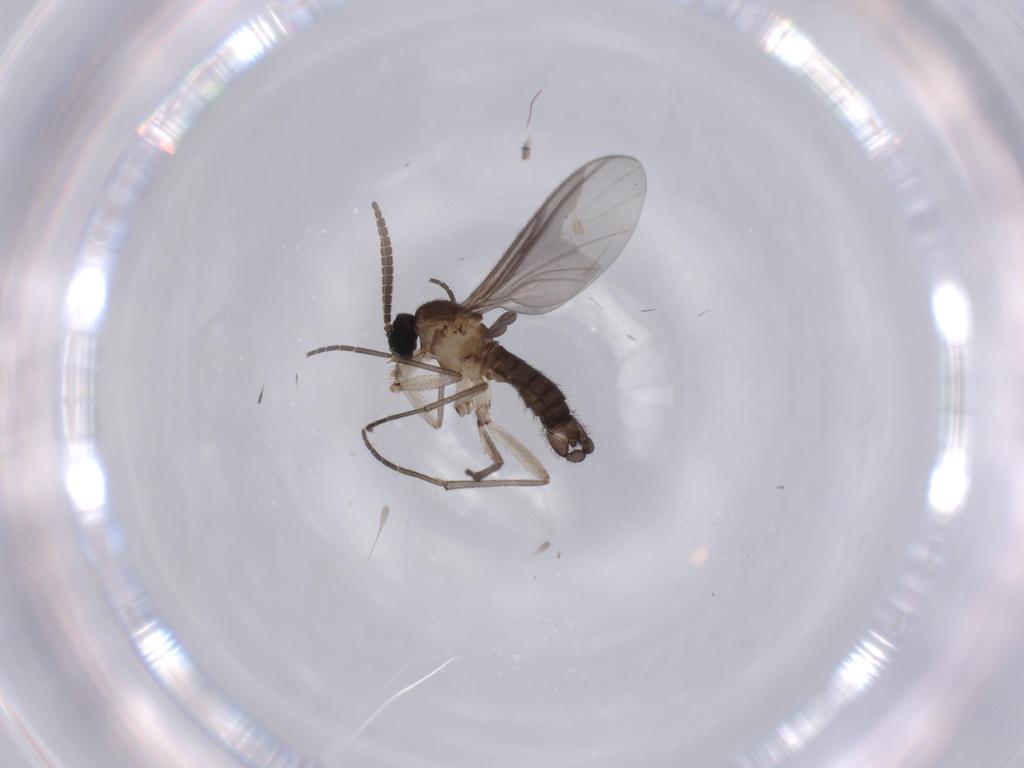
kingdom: Animalia
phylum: Arthropoda
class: Insecta
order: Diptera
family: Sciaridae
